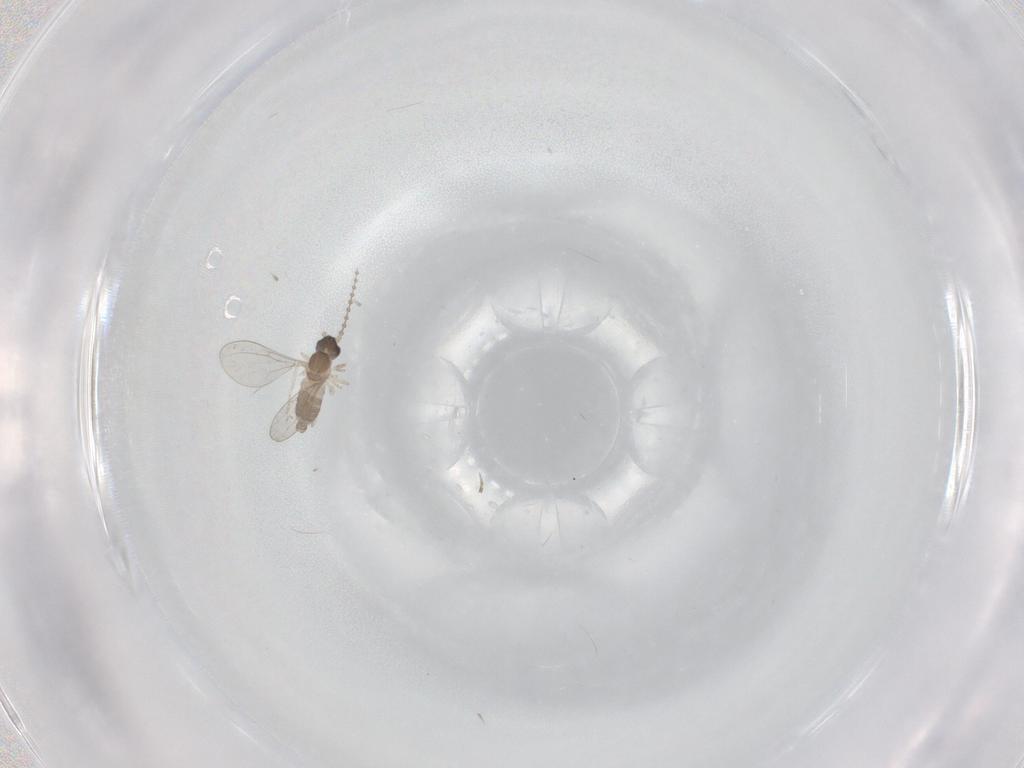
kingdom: Animalia
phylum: Arthropoda
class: Insecta
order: Diptera
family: Cecidomyiidae
